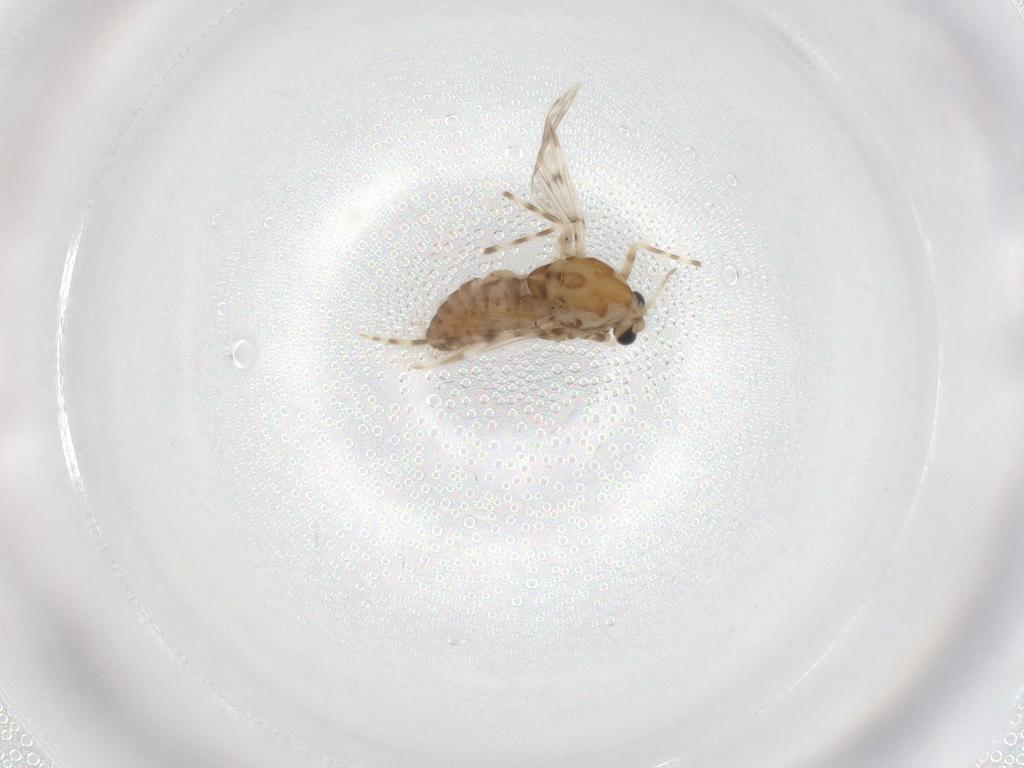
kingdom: Animalia
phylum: Arthropoda
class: Insecta
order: Diptera
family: Chironomidae
